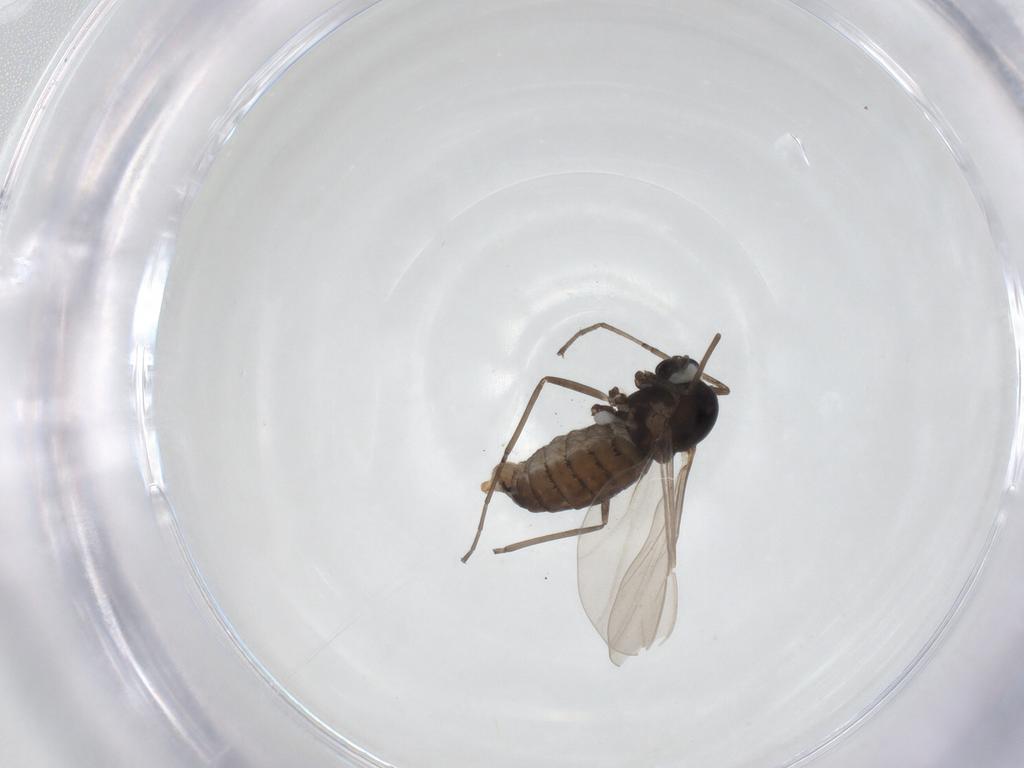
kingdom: Animalia
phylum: Arthropoda
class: Insecta
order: Diptera
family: Cecidomyiidae
